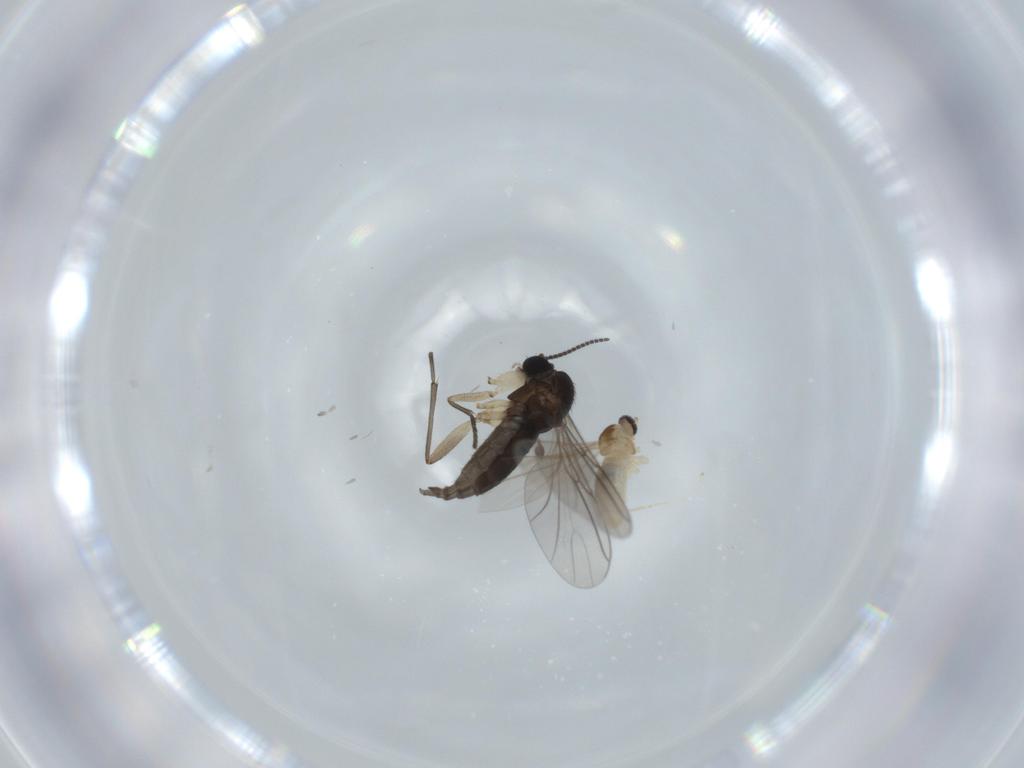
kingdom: Animalia
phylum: Arthropoda
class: Insecta
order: Diptera
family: Sciaridae
